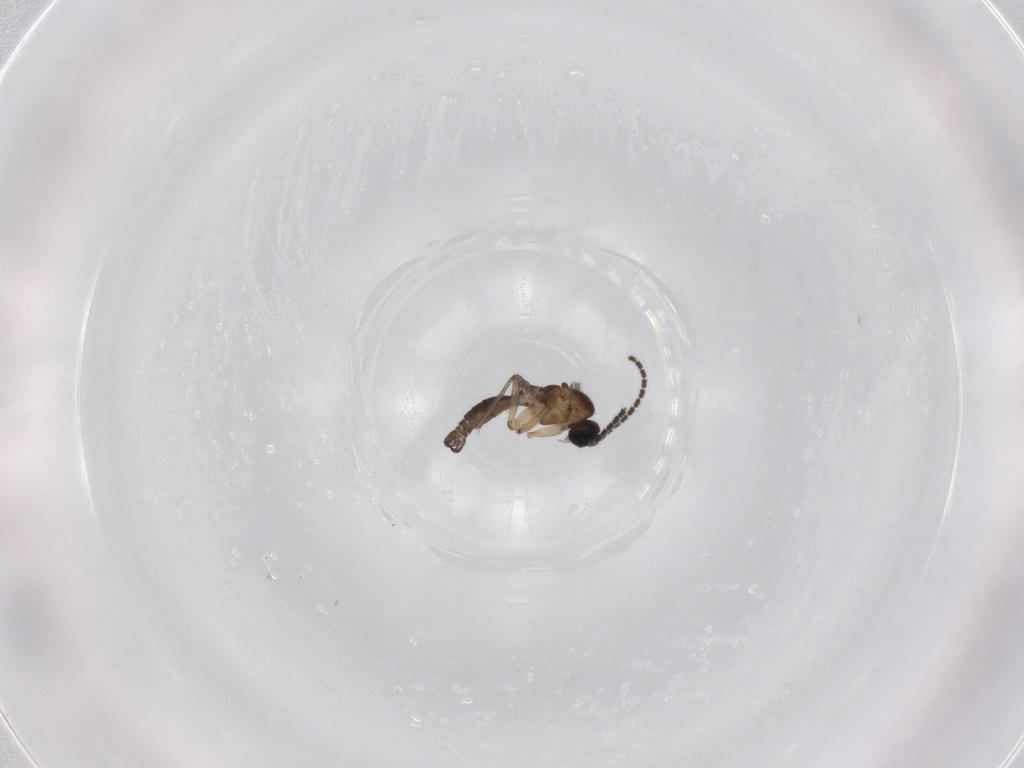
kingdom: Animalia
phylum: Arthropoda
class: Insecta
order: Diptera
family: Sciaridae
